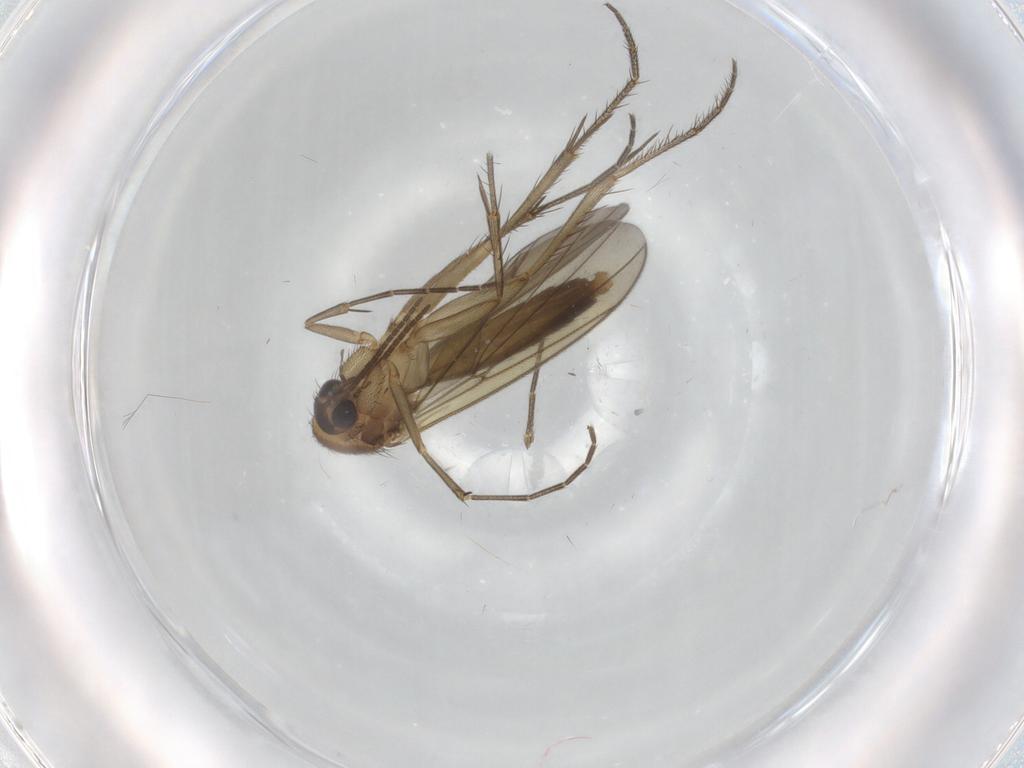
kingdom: Animalia
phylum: Arthropoda
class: Insecta
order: Diptera
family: Mycetophilidae
